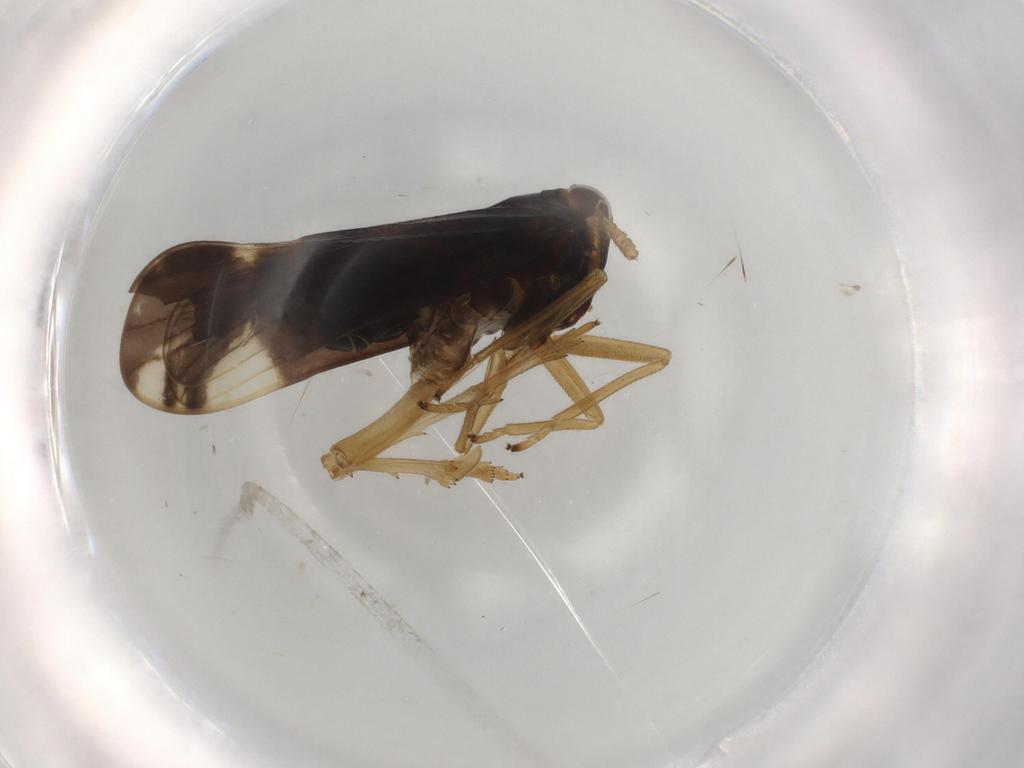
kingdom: Animalia
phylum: Arthropoda
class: Insecta
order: Hemiptera
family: Delphacidae
